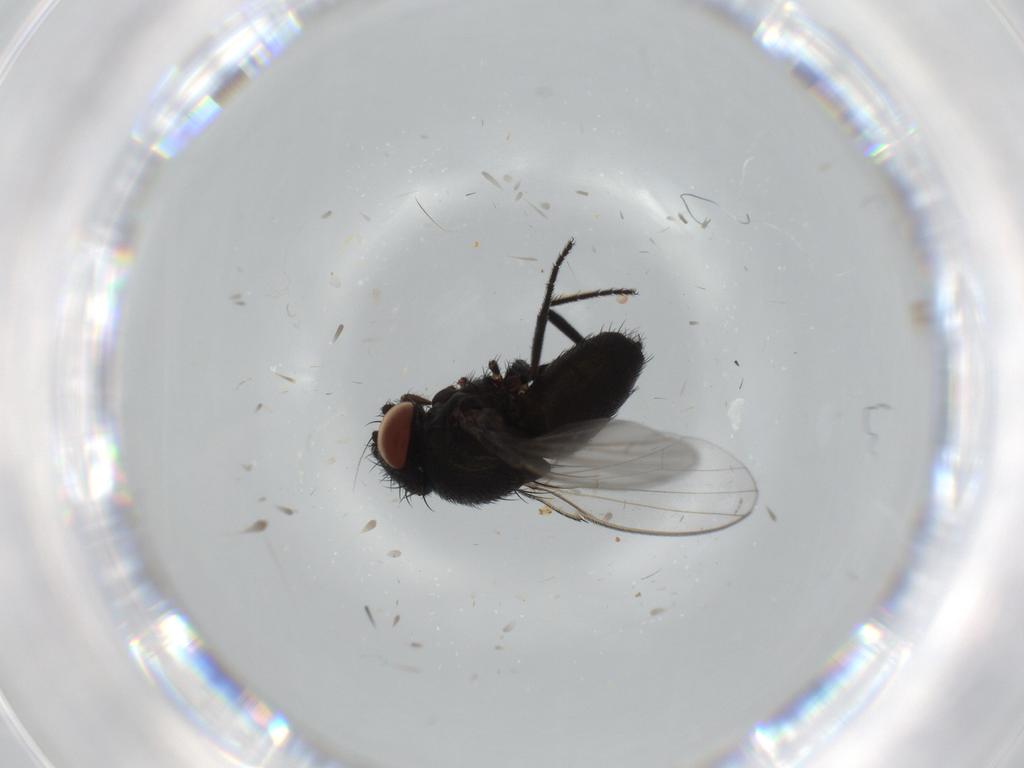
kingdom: Animalia
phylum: Arthropoda
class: Insecta
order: Diptera
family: Milichiidae
